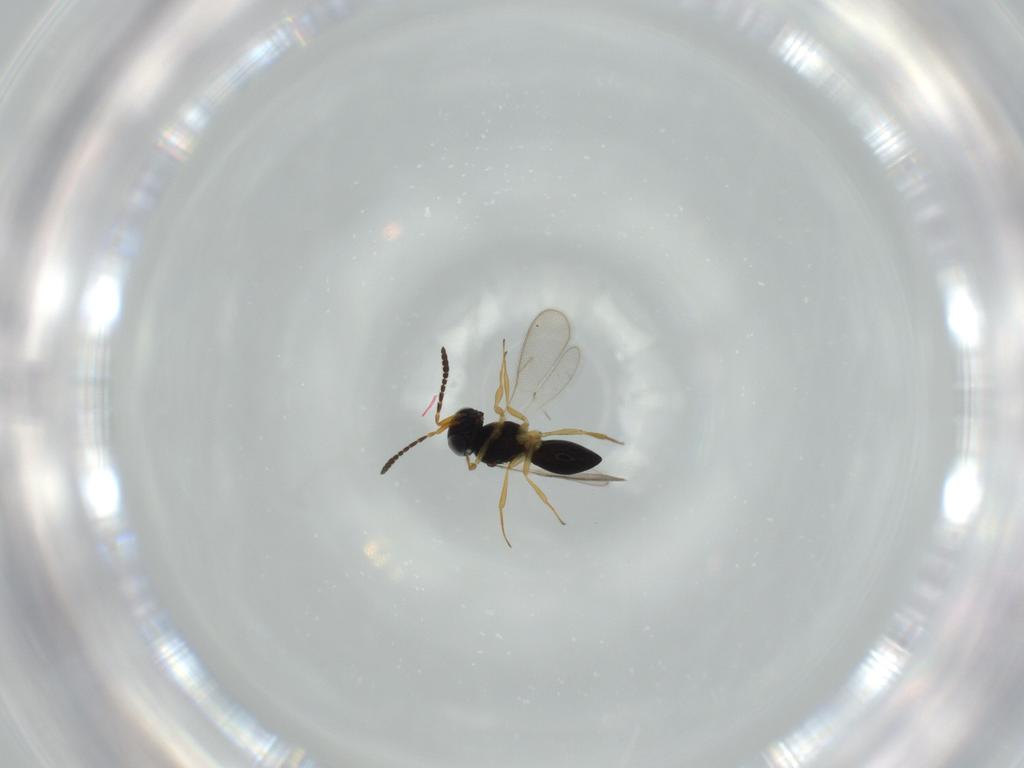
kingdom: Animalia
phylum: Arthropoda
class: Insecta
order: Hymenoptera
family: Scelionidae
